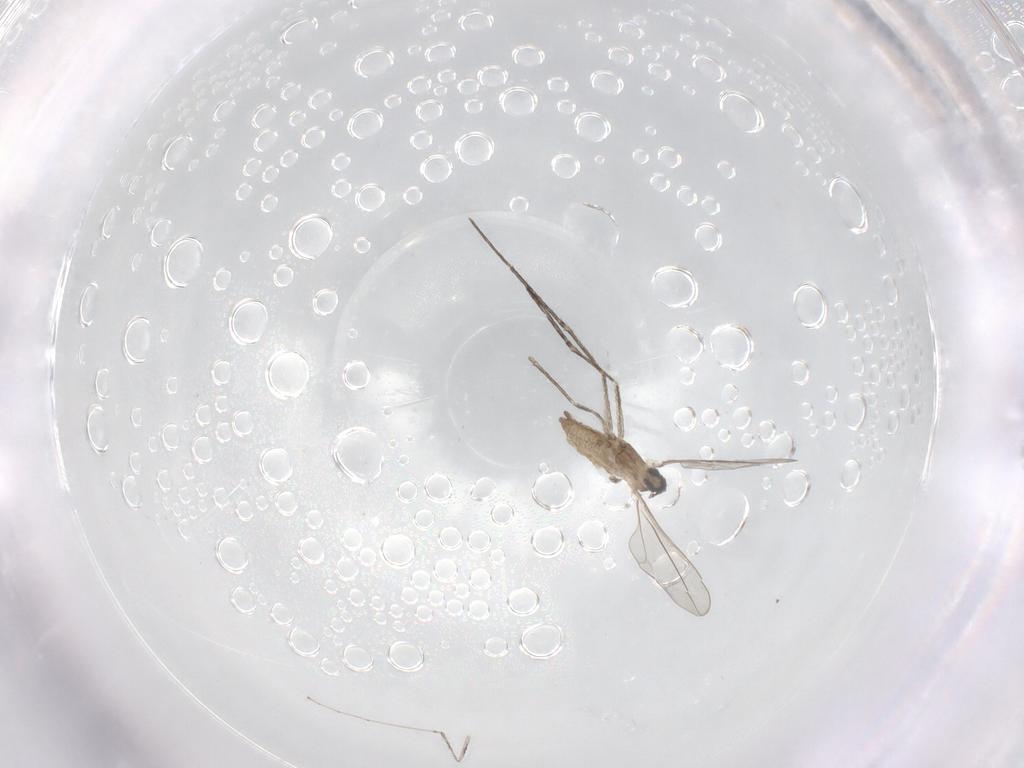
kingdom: Animalia
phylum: Arthropoda
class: Insecta
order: Diptera
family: Cecidomyiidae
